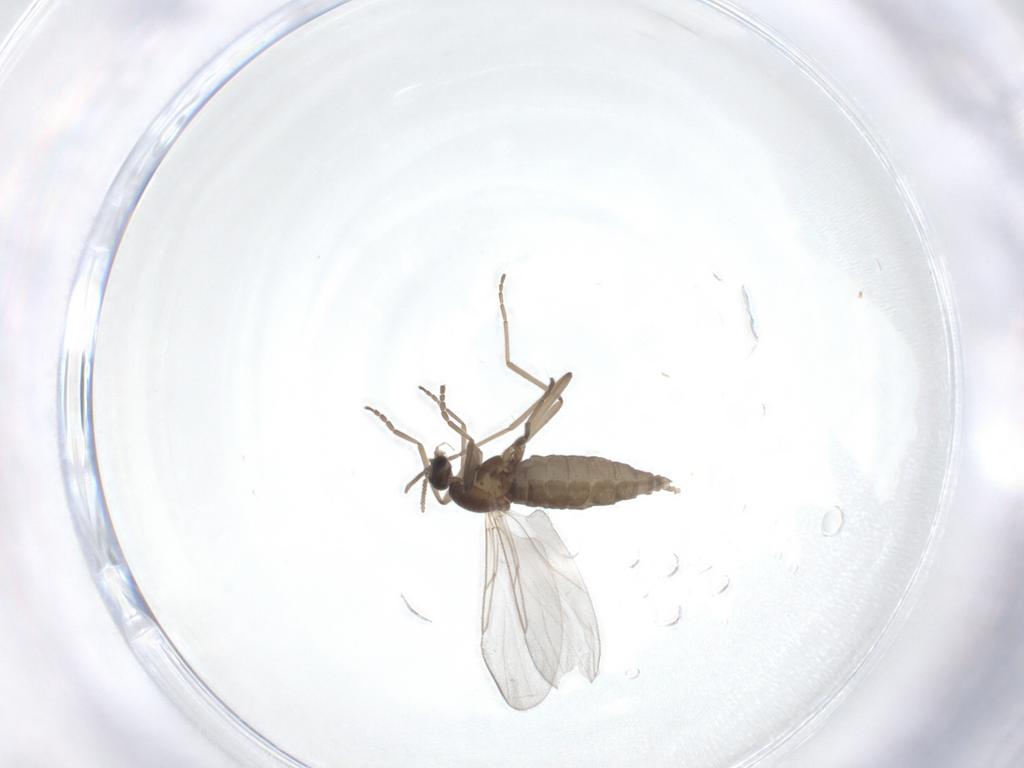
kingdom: Animalia
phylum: Arthropoda
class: Insecta
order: Diptera
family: Cecidomyiidae
